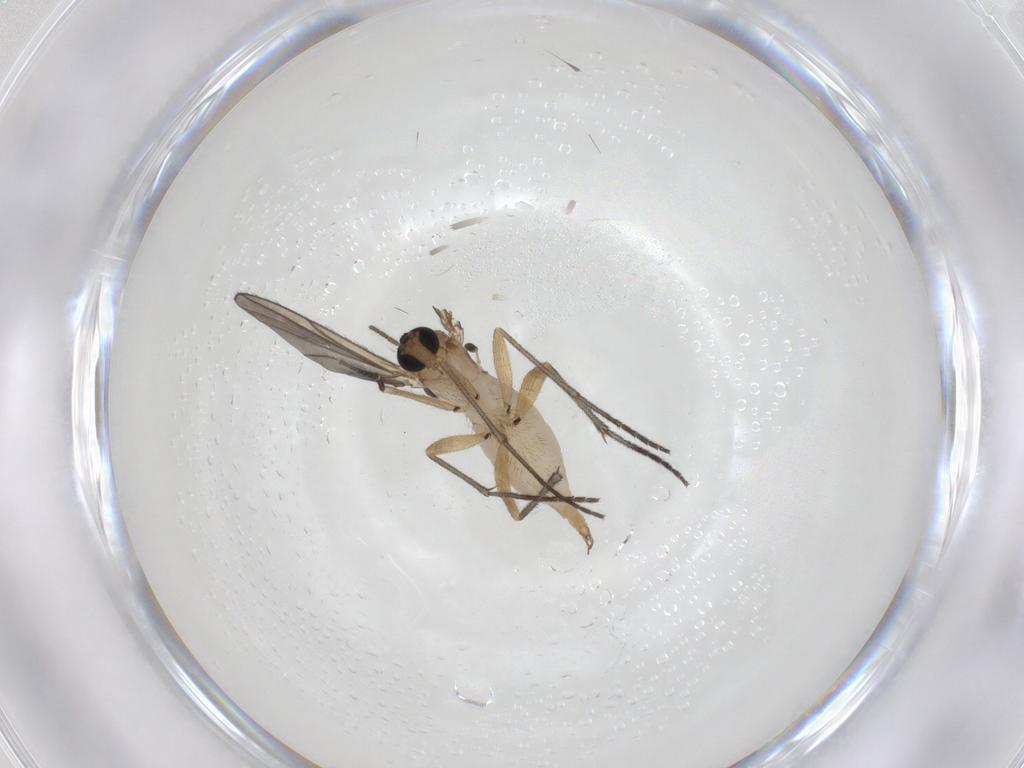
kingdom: Animalia
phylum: Arthropoda
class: Insecta
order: Diptera
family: Sciaridae
